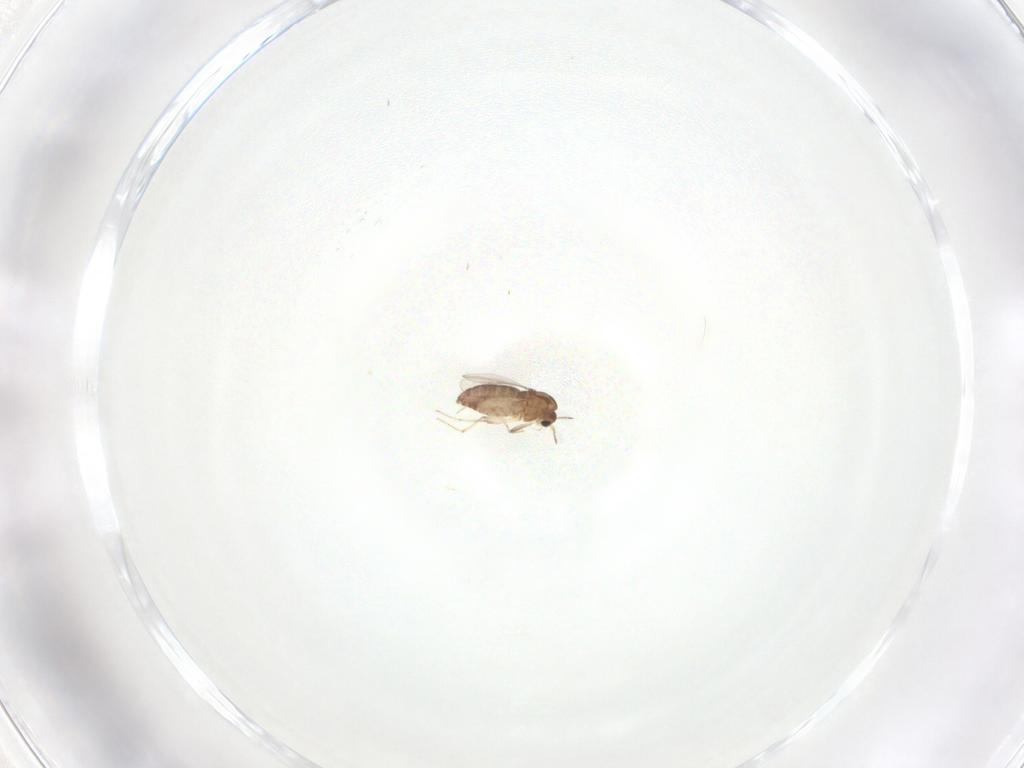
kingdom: Animalia
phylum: Arthropoda
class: Insecta
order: Diptera
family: Chironomidae
